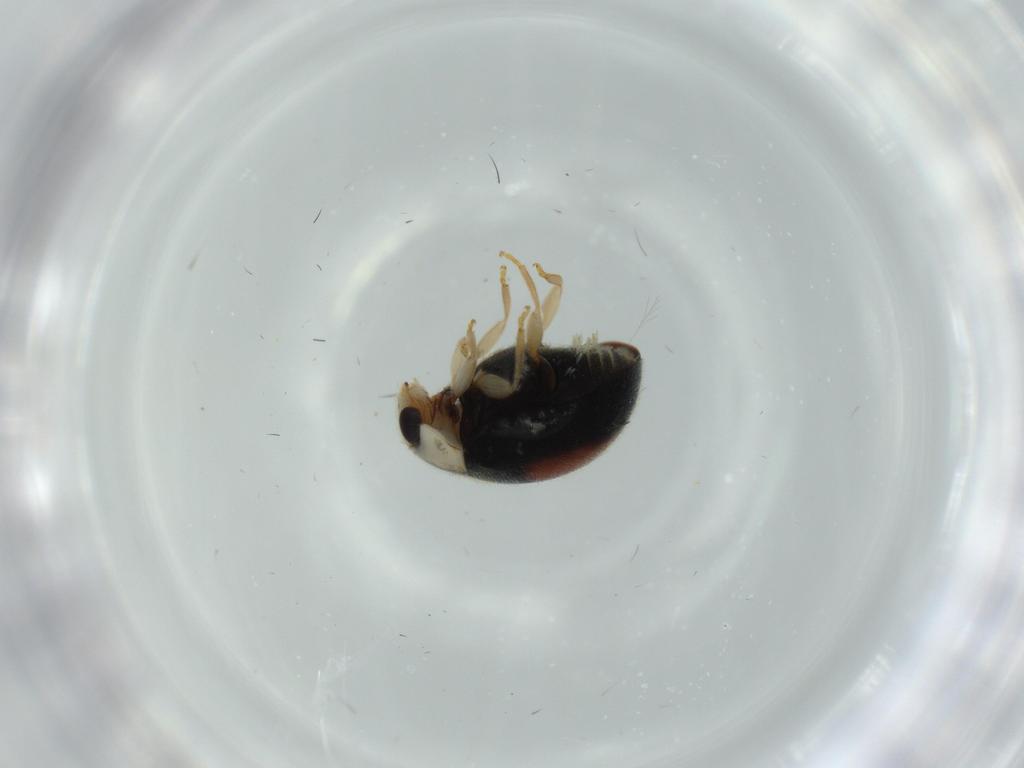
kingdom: Animalia
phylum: Arthropoda
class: Insecta
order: Coleoptera
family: Coccinellidae
